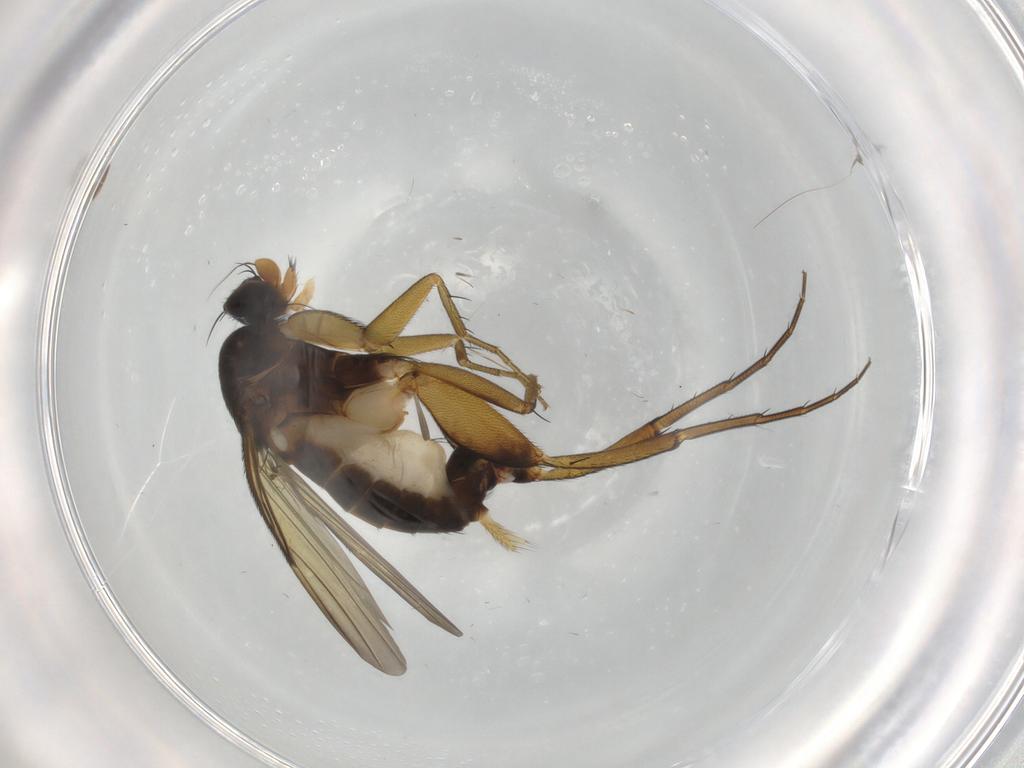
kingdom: Animalia
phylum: Arthropoda
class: Insecta
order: Diptera
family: Phoridae
